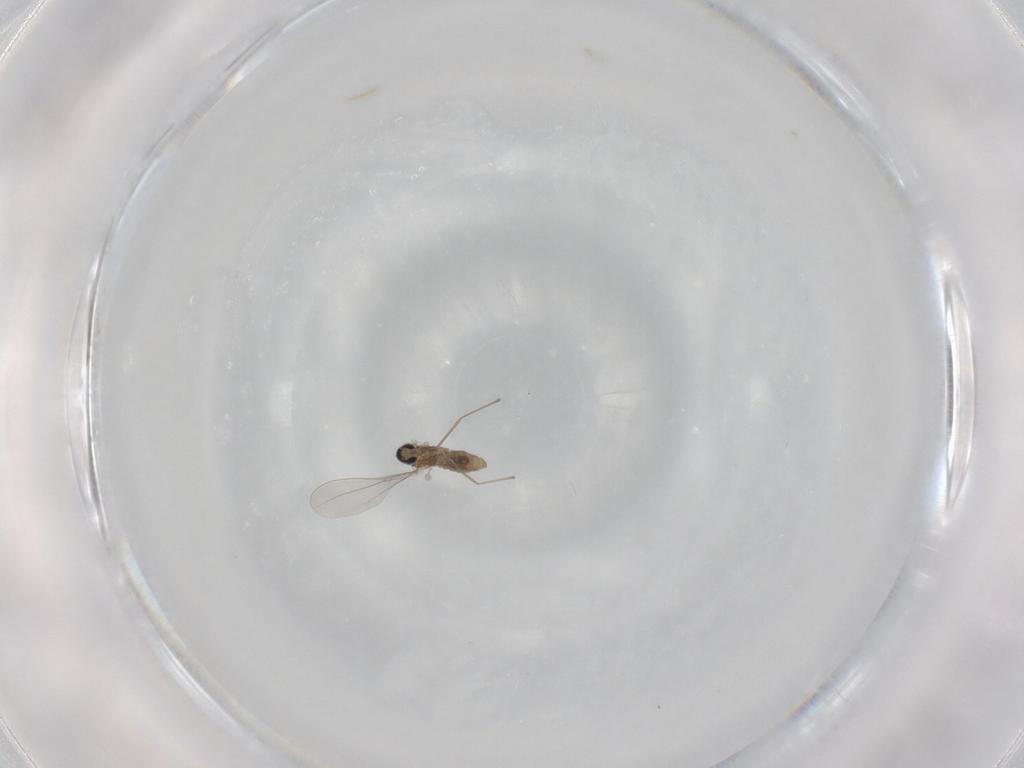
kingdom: Animalia
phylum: Arthropoda
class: Insecta
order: Diptera
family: Cecidomyiidae
